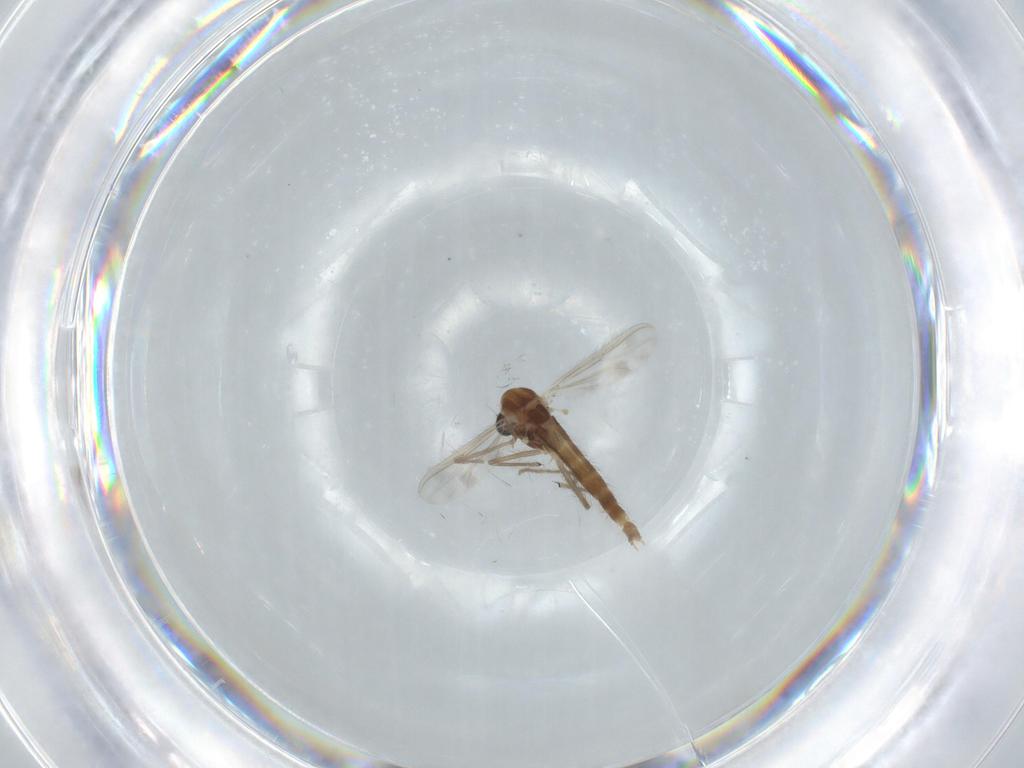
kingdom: Animalia
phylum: Arthropoda
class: Insecta
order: Diptera
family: Chironomidae
